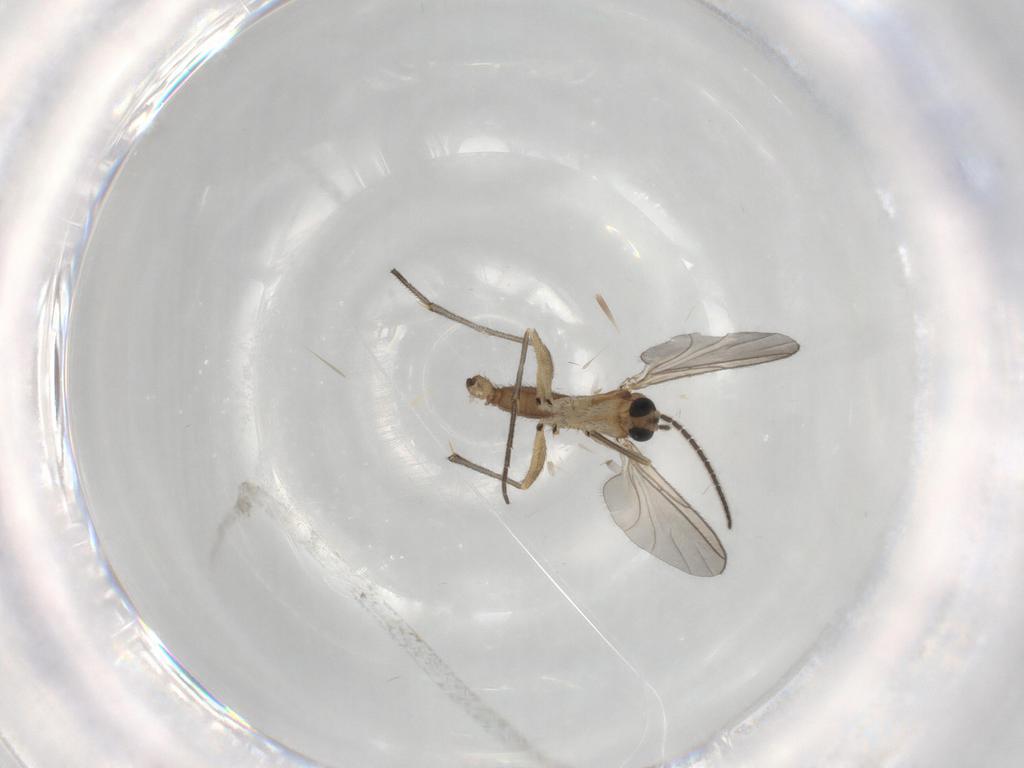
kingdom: Animalia
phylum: Arthropoda
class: Insecta
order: Diptera
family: Sciaridae
